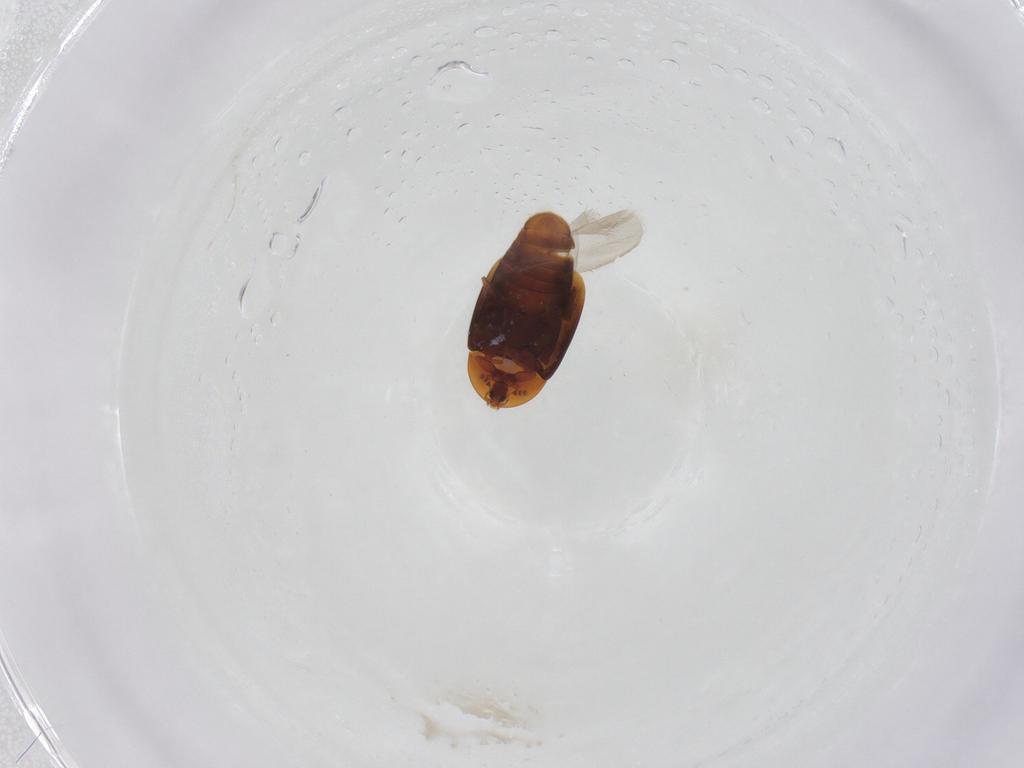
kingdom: Animalia
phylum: Arthropoda
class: Insecta
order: Coleoptera
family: Corylophidae
